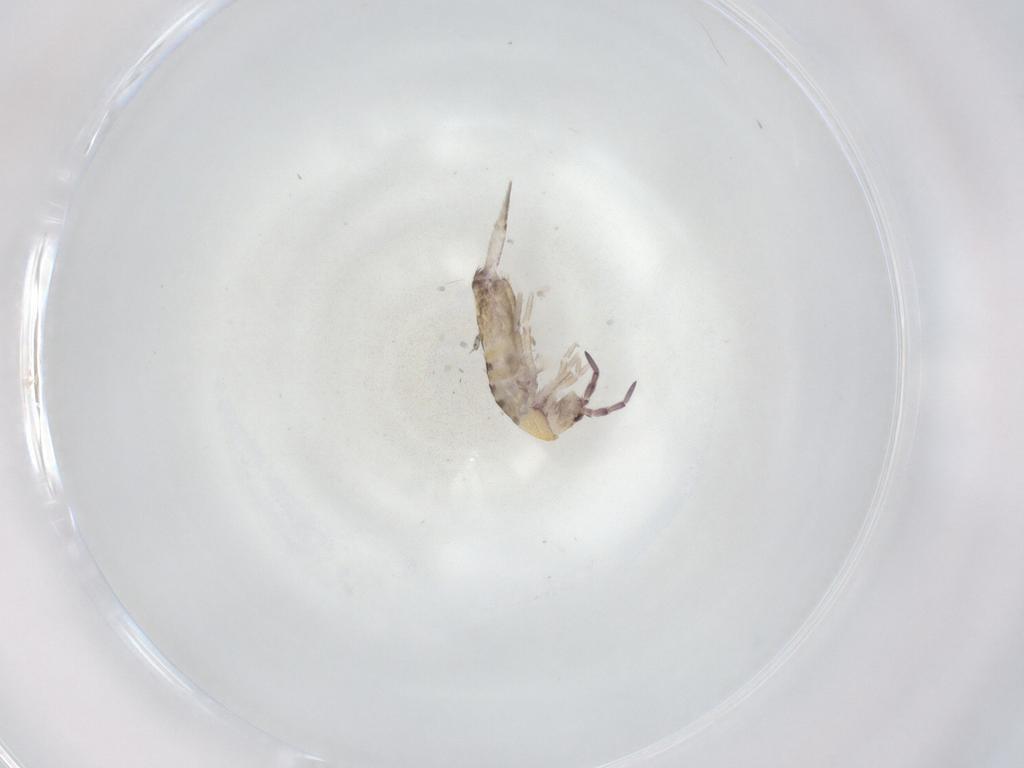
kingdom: Animalia
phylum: Arthropoda
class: Collembola
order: Entomobryomorpha
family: Entomobryidae
